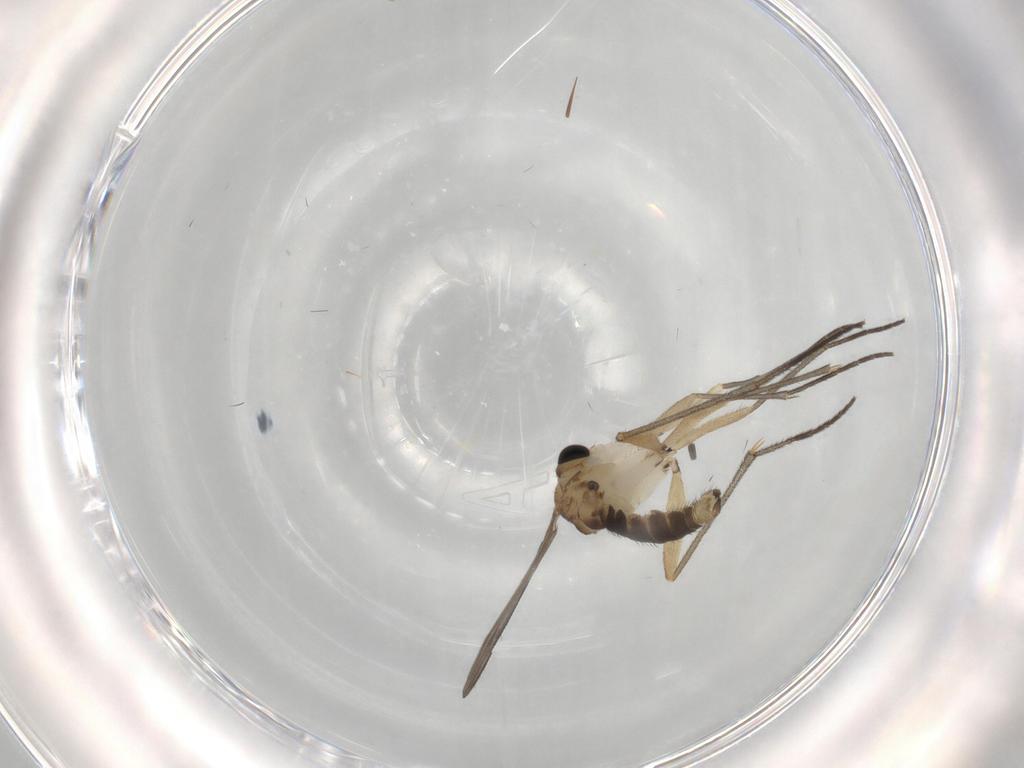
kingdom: Animalia
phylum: Arthropoda
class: Insecta
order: Diptera
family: Sciaridae
